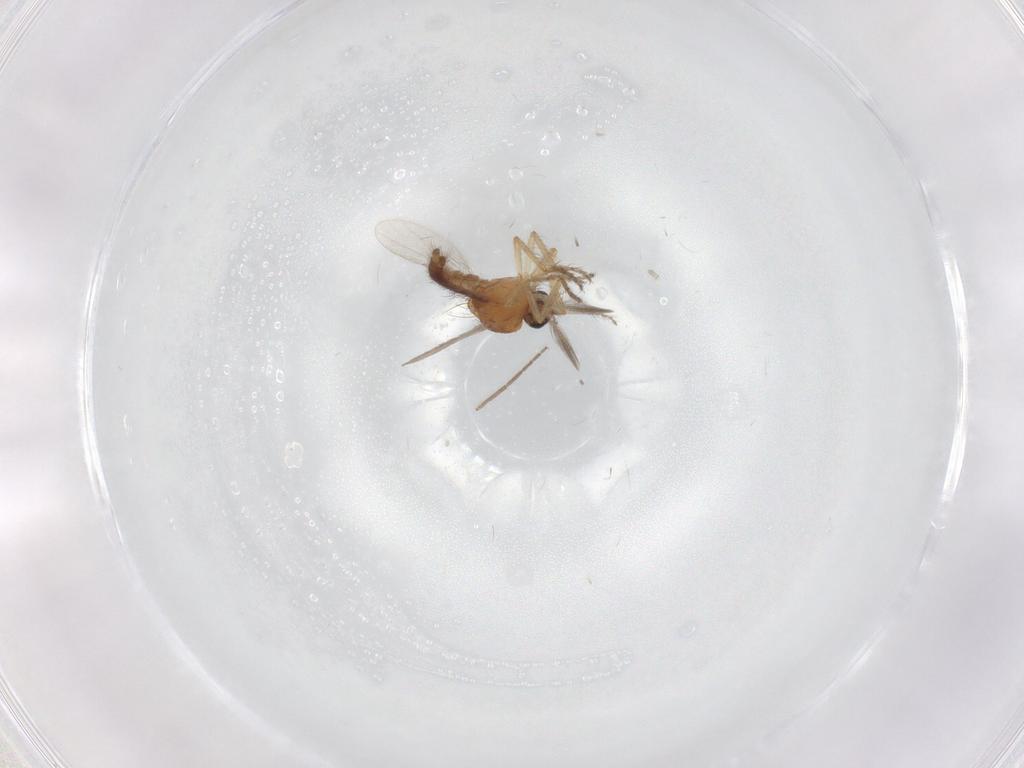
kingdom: Animalia
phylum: Arthropoda
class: Insecta
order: Diptera
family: Ceratopogonidae
